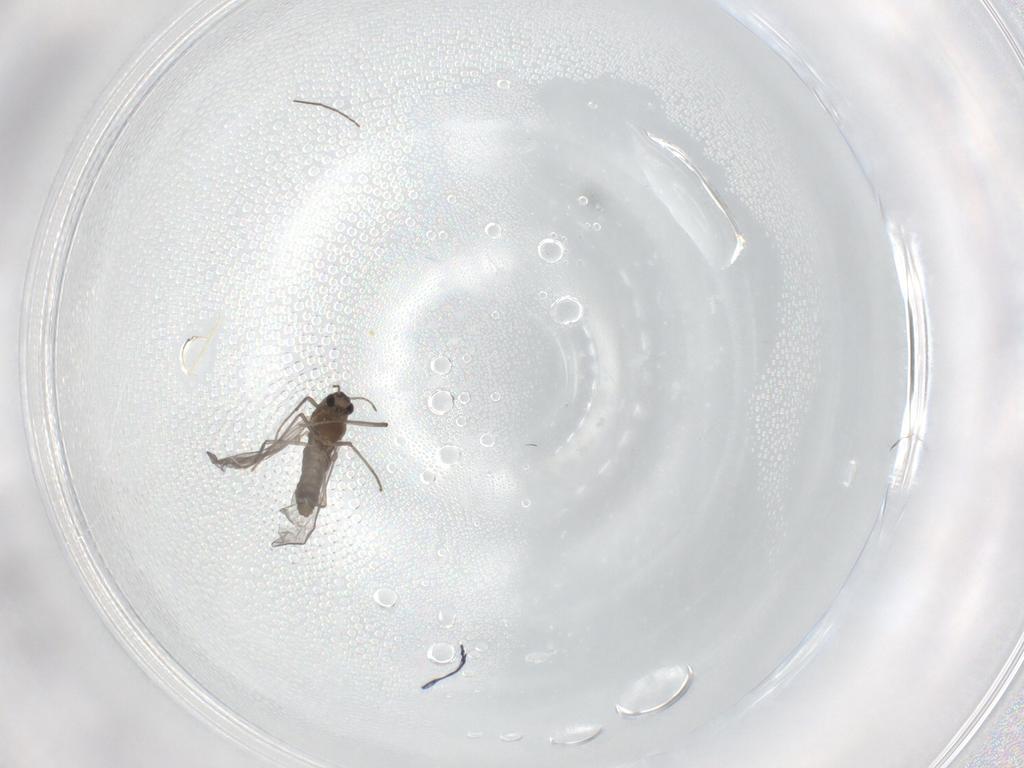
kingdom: Animalia
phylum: Arthropoda
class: Insecta
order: Diptera
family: Chironomidae
